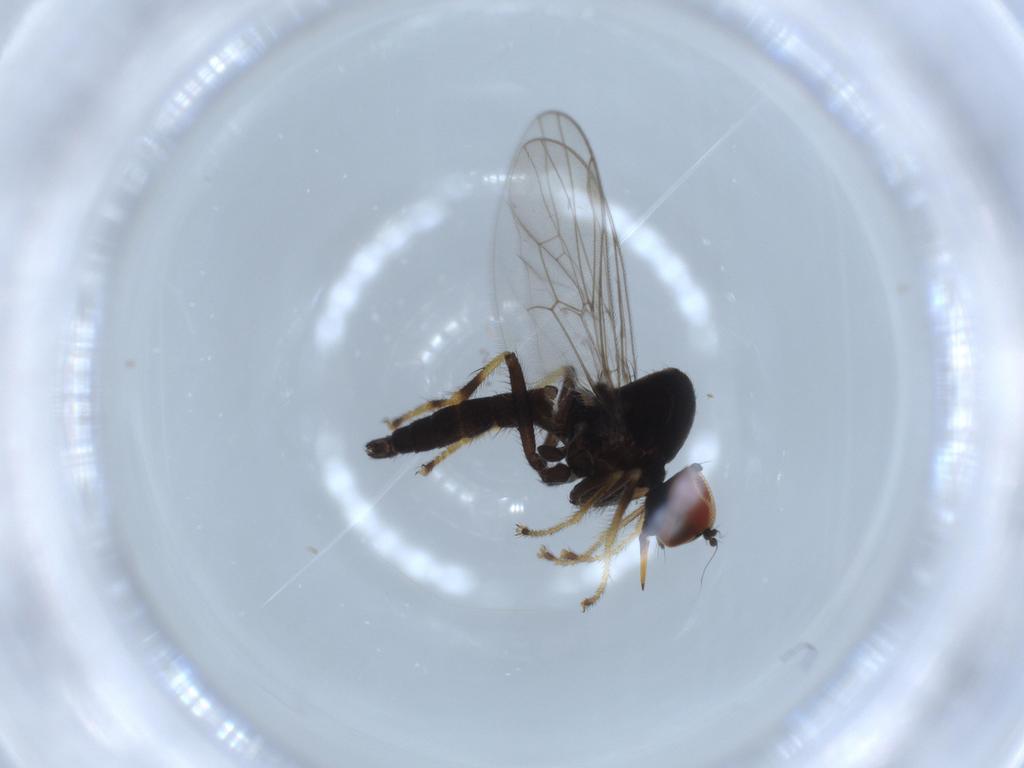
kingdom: Animalia
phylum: Arthropoda
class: Insecta
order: Diptera
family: Hybotidae
